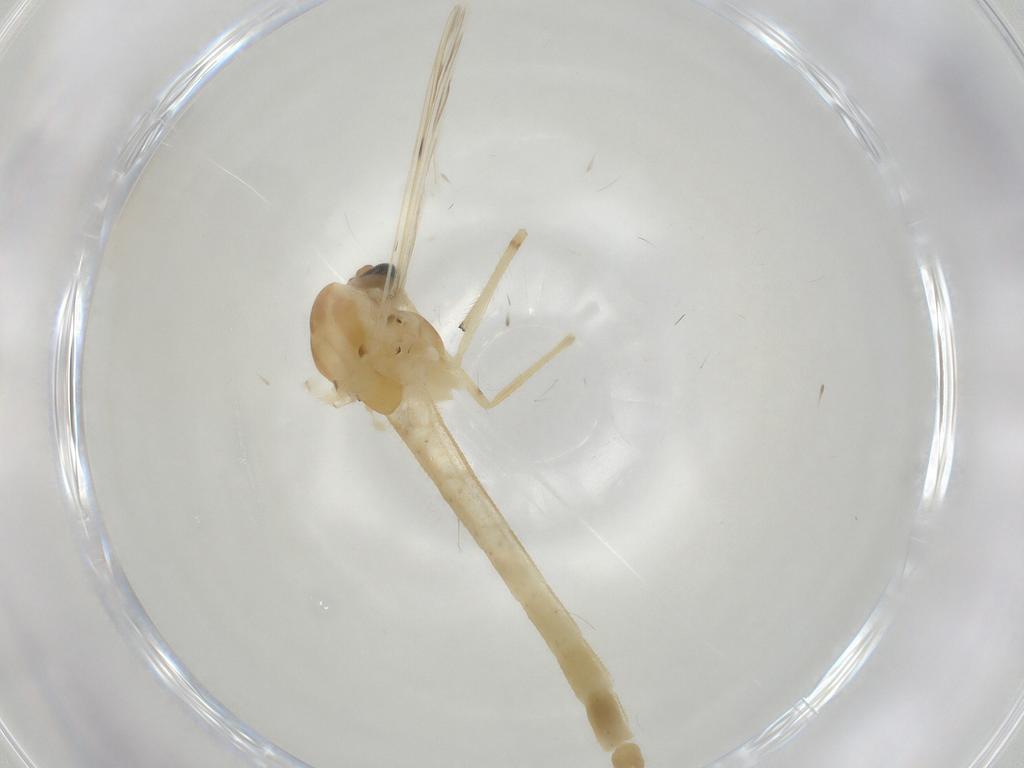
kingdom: Animalia
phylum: Arthropoda
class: Insecta
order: Diptera
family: Chironomidae
